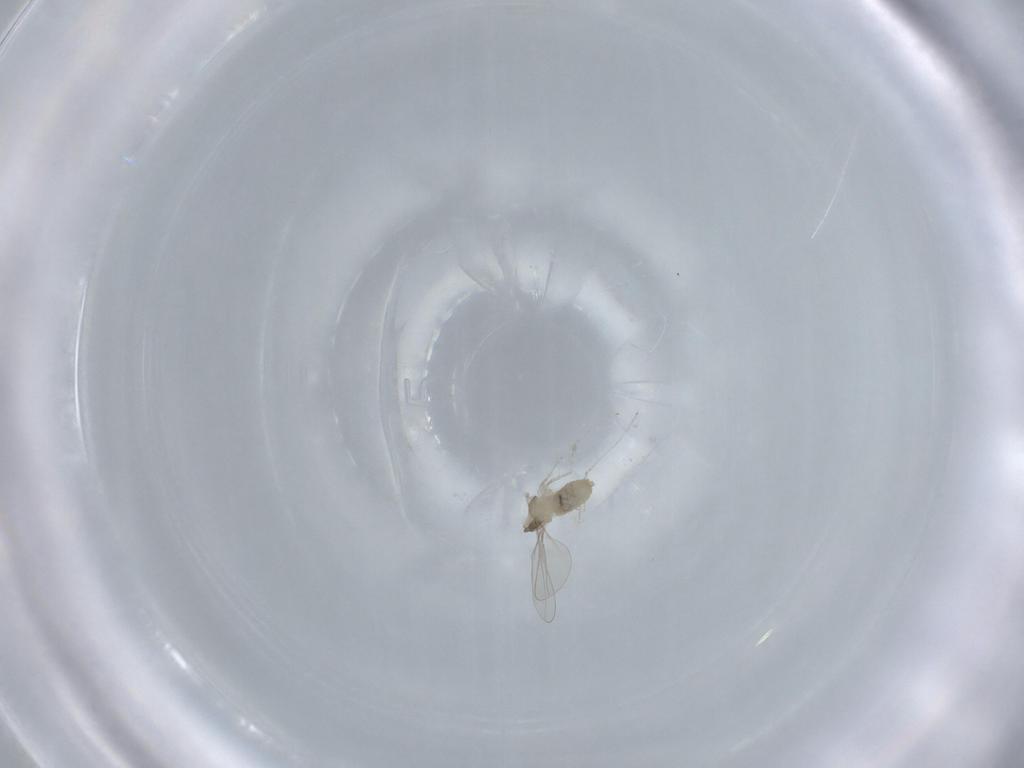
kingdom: Animalia
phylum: Arthropoda
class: Insecta
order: Diptera
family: Cecidomyiidae
